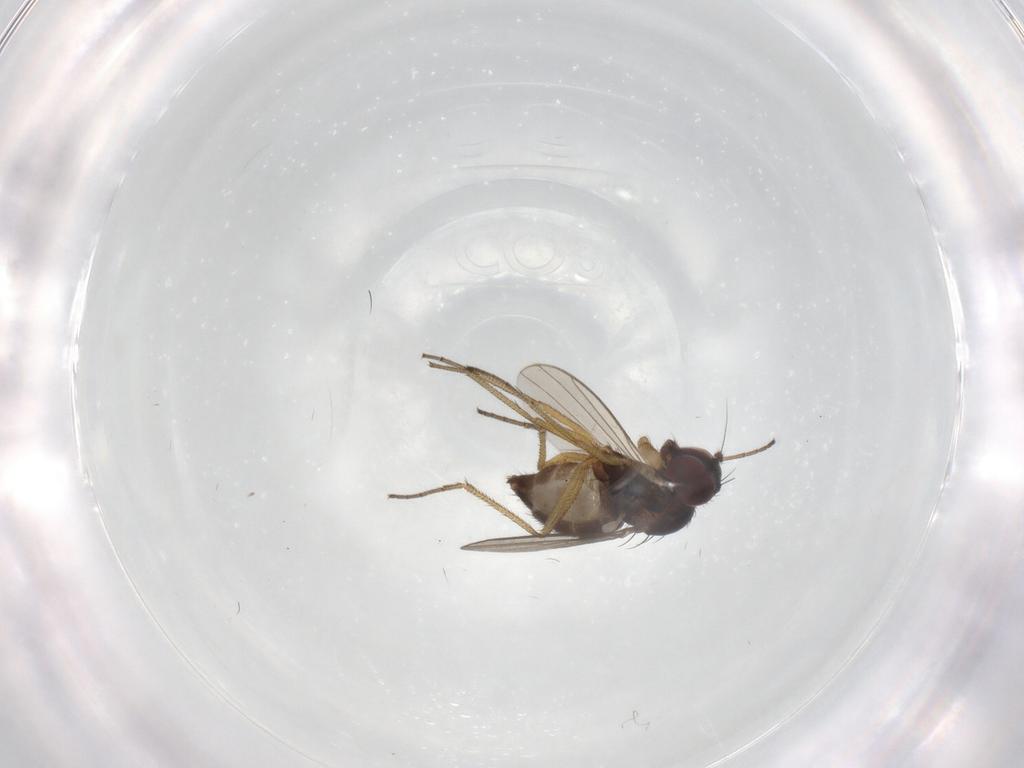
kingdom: Animalia
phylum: Arthropoda
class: Insecta
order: Diptera
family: Dolichopodidae
